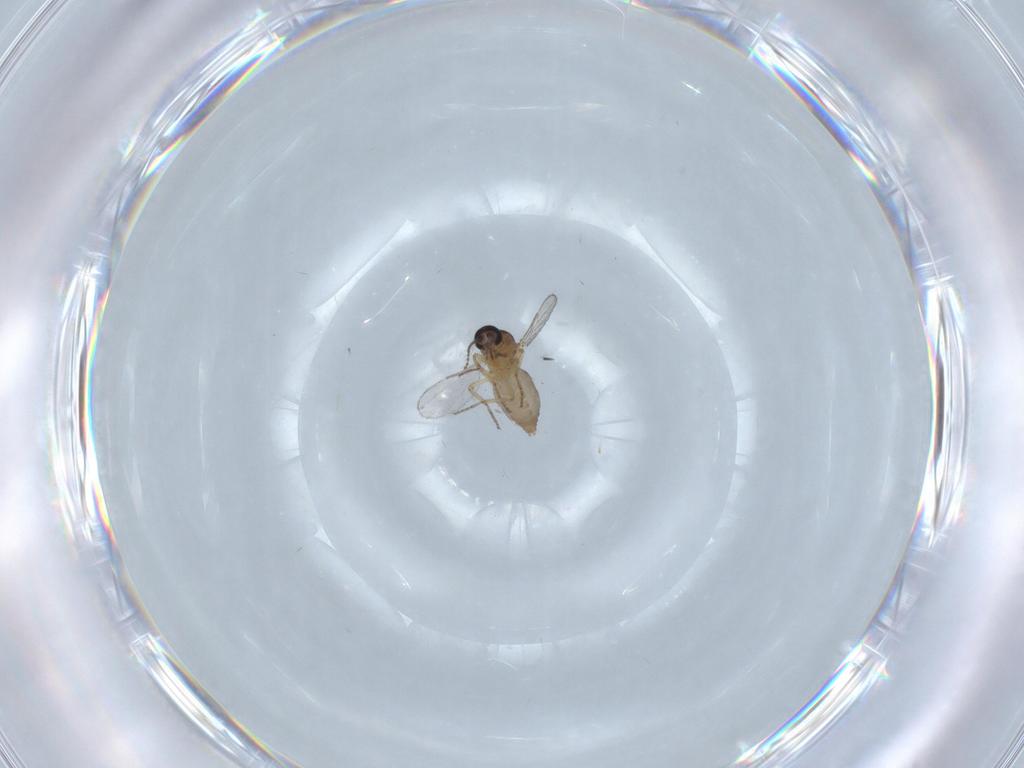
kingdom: Animalia
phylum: Arthropoda
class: Insecta
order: Diptera
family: Ceratopogonidae
